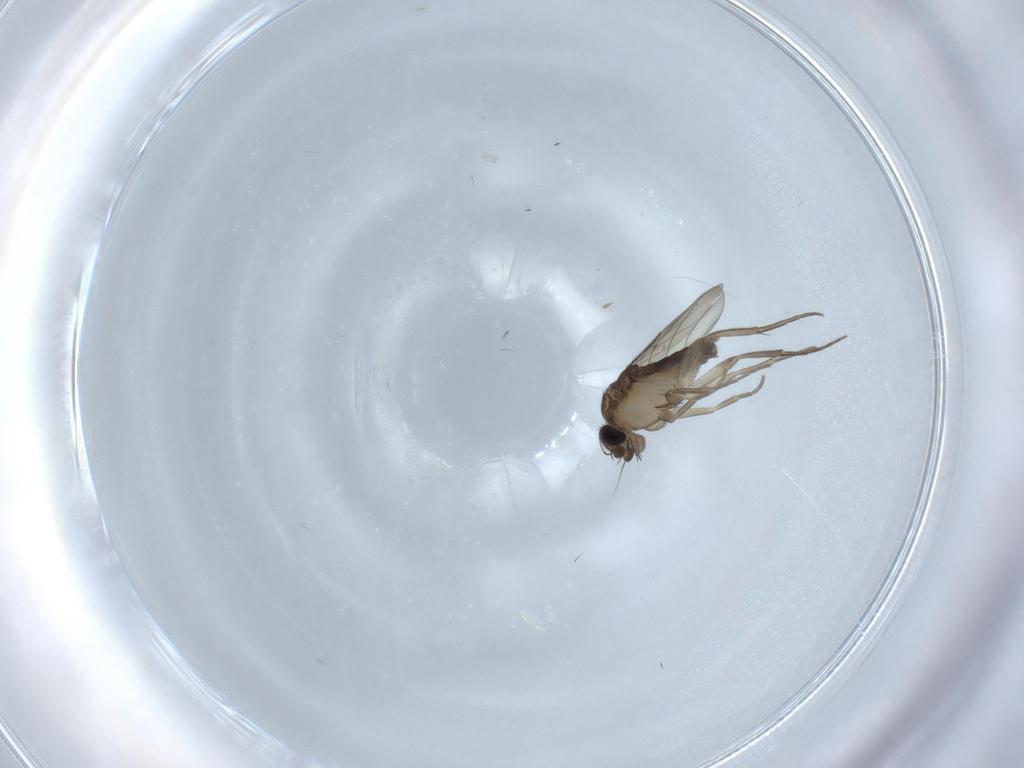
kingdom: Animalia
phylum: Arthropoda
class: Insecta
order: Diptera
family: Phoridae
